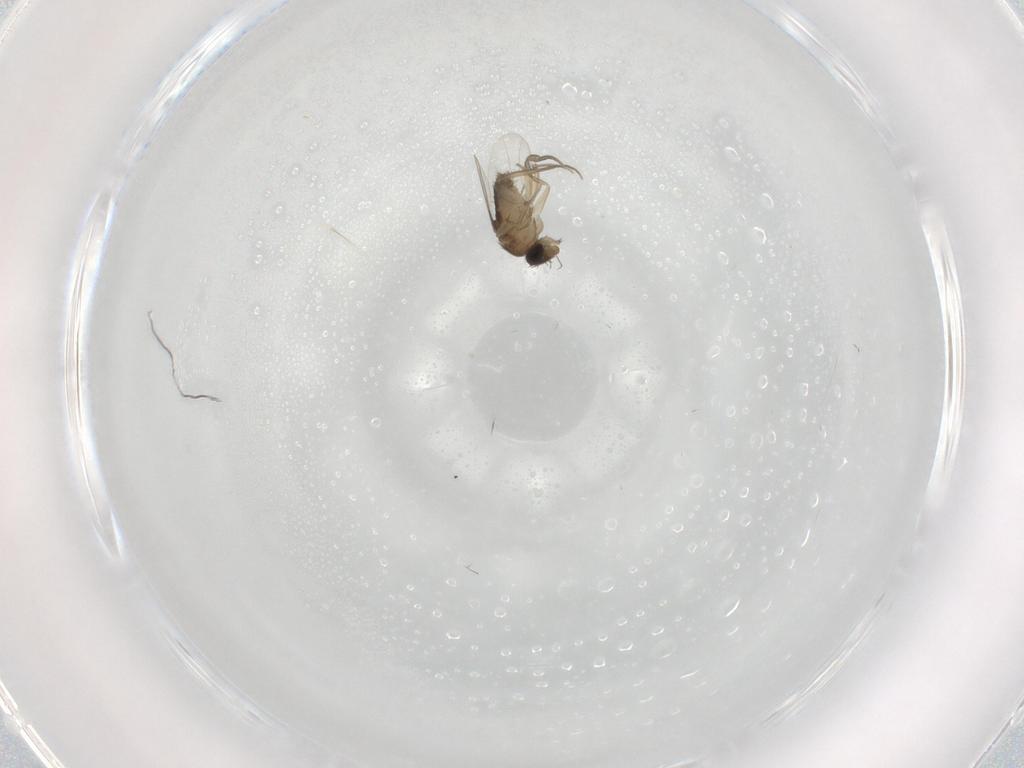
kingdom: Animalia
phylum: Arthropoda
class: Insecta
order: Diptera
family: Phoridae
